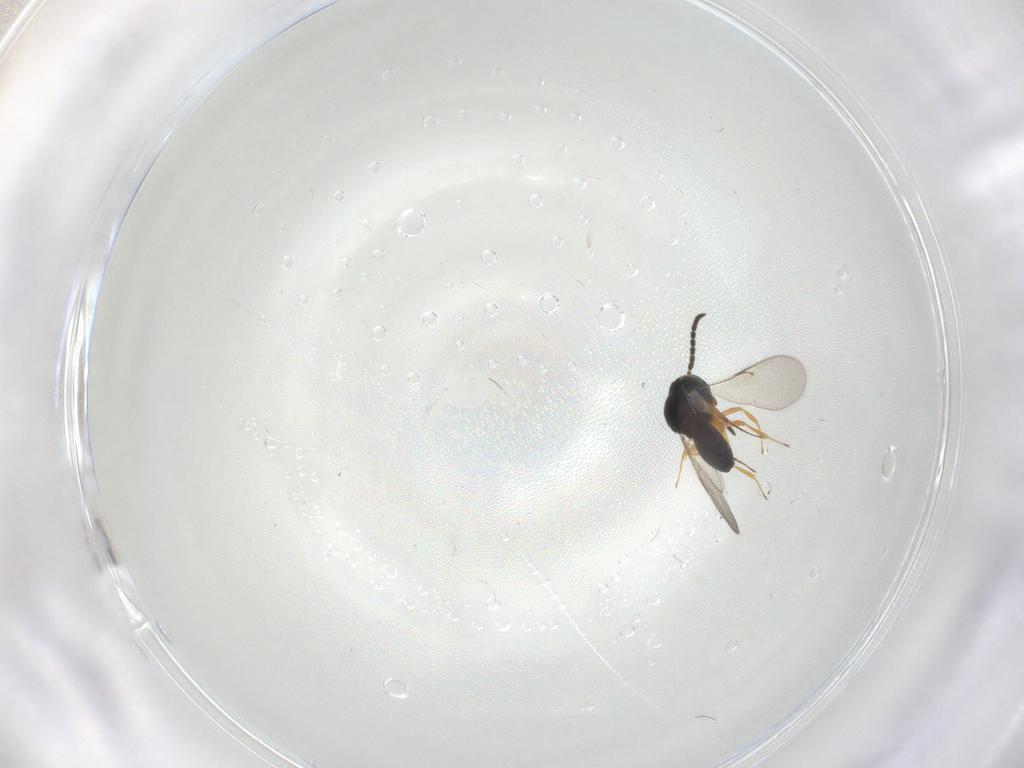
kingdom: Animalia
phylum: Arthropoda
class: Insecta
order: Hymenoptera
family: Scelionidae
